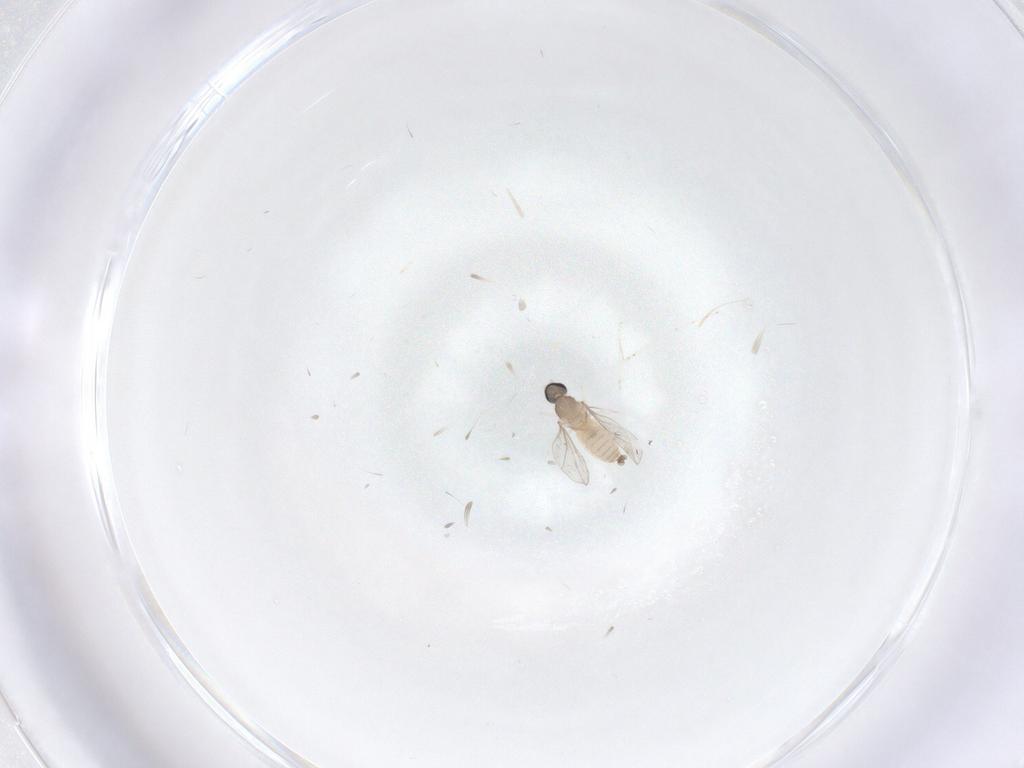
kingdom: Animalia
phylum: Arthropoda
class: Insecta
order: Diptera
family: Cecidomyiidae
